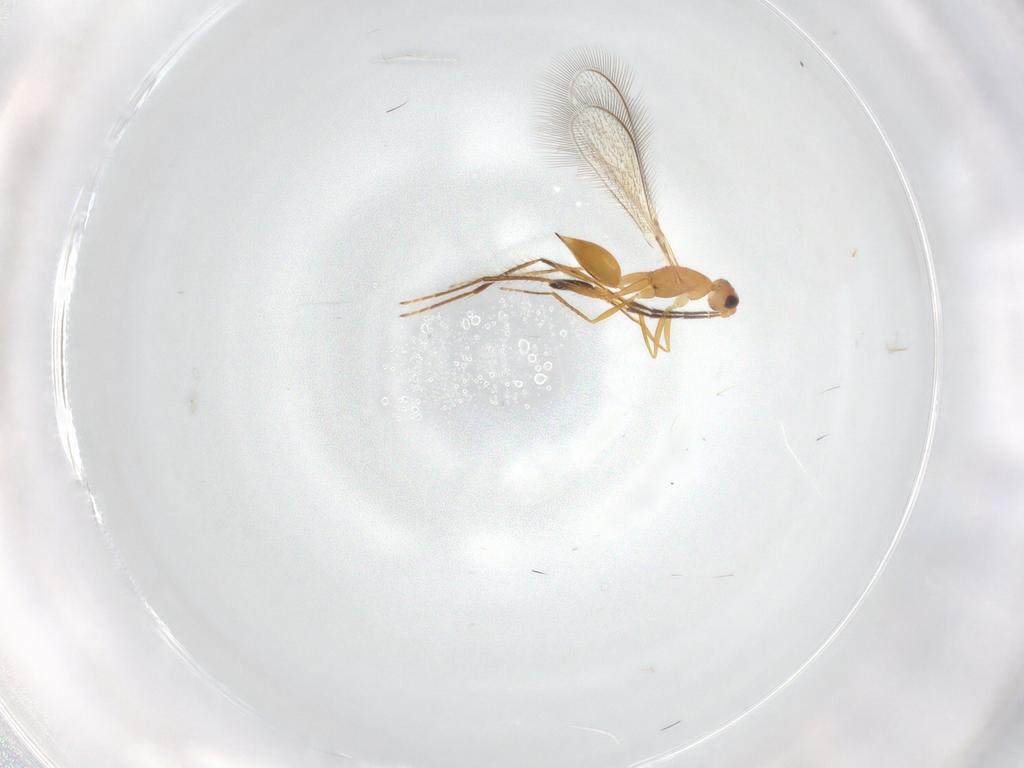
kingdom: Animalia
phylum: Arthropoda
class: Insecta
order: Hymenoptera
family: Mymaridae
